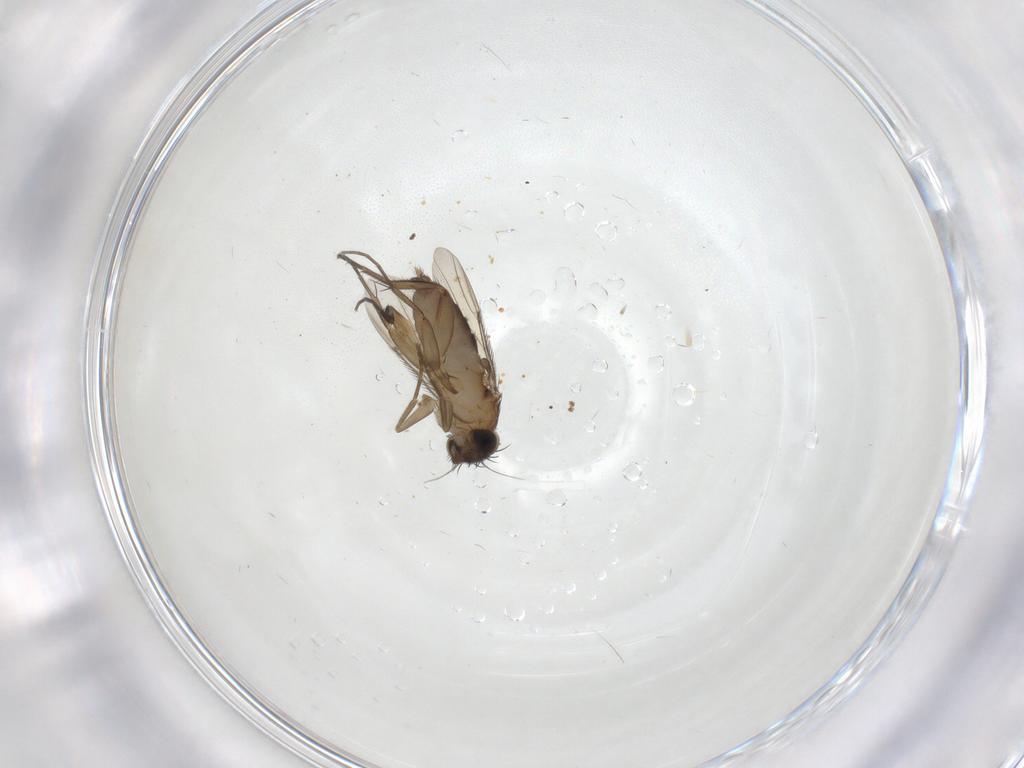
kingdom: Animalia
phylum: Arthropoda
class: Insecta
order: Diptera
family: Phoridae
